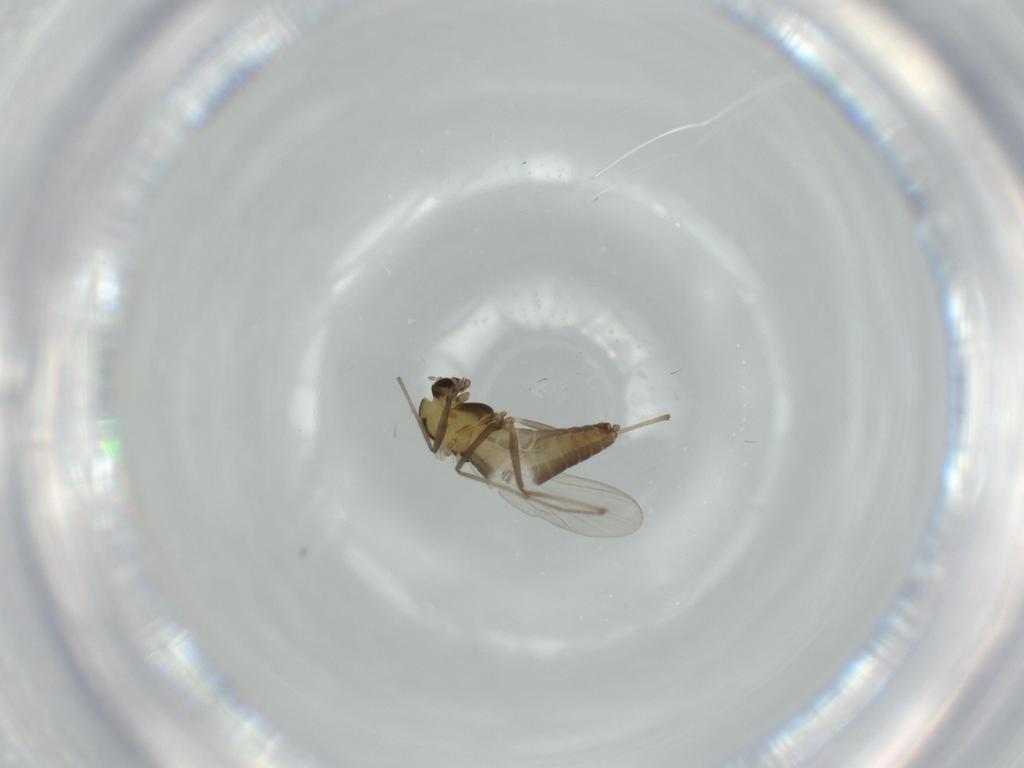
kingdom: Animalia
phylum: Arthropoda
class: Insecta
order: Diptera
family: Chironomidae
